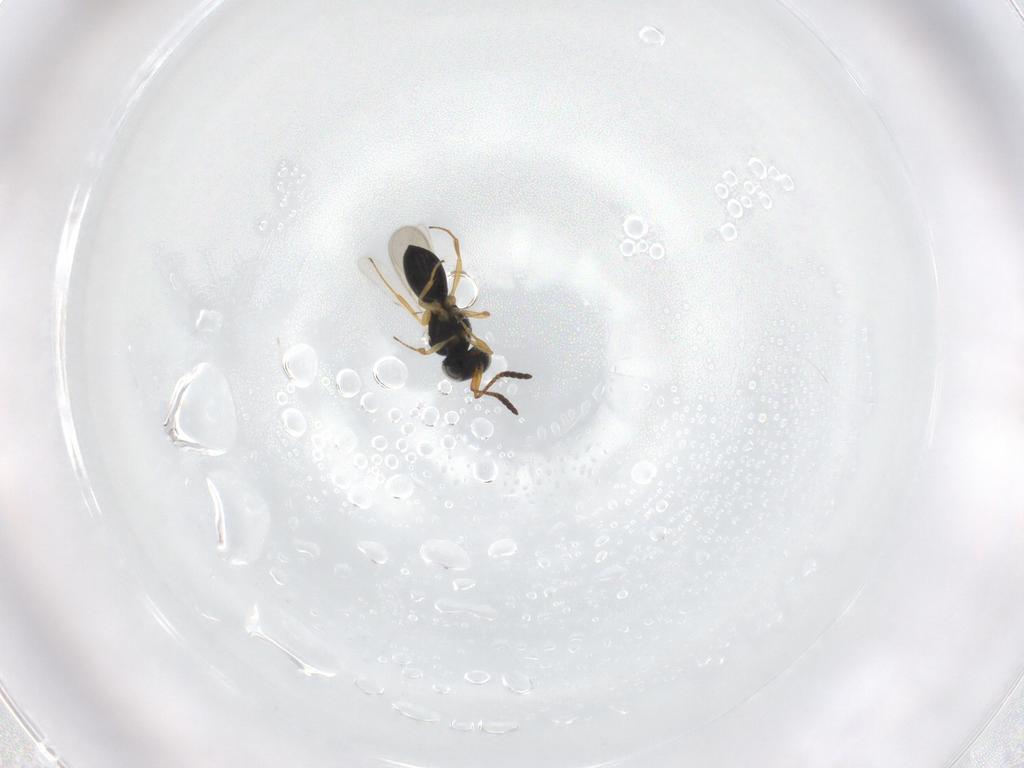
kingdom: Animalia
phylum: Arthropoda
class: Insecta
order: Hymenoptera
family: Scelionidae
